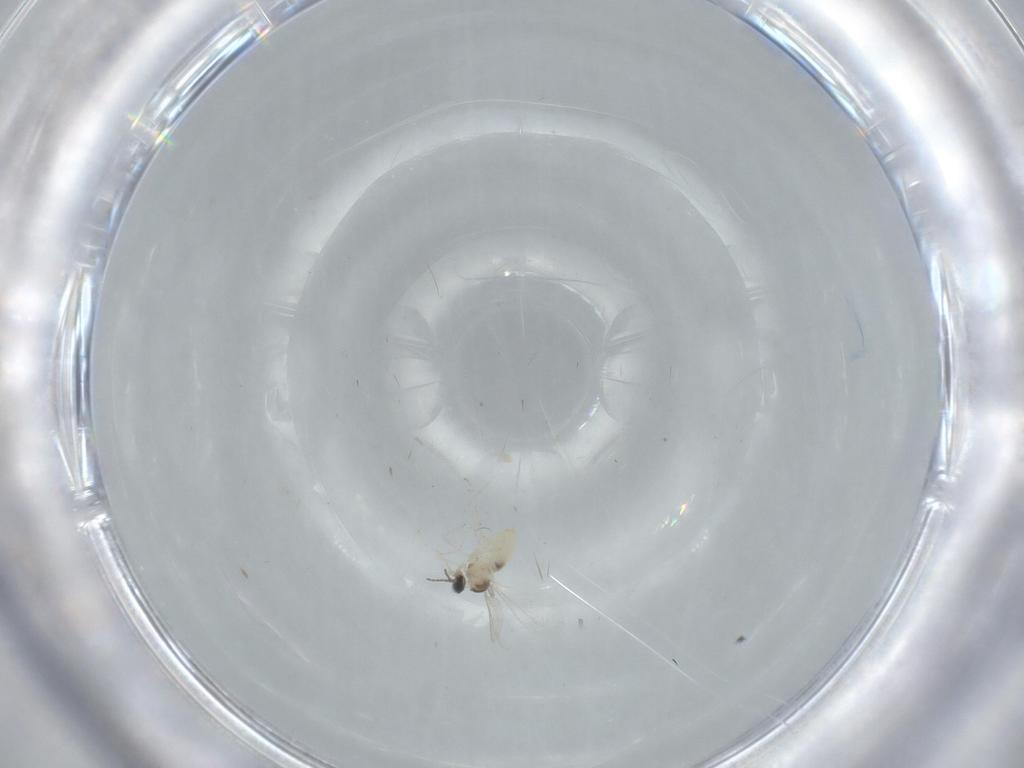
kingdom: Animalia
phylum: Arthropoda
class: Insecta
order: Diptera
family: Cecidomyiidae
